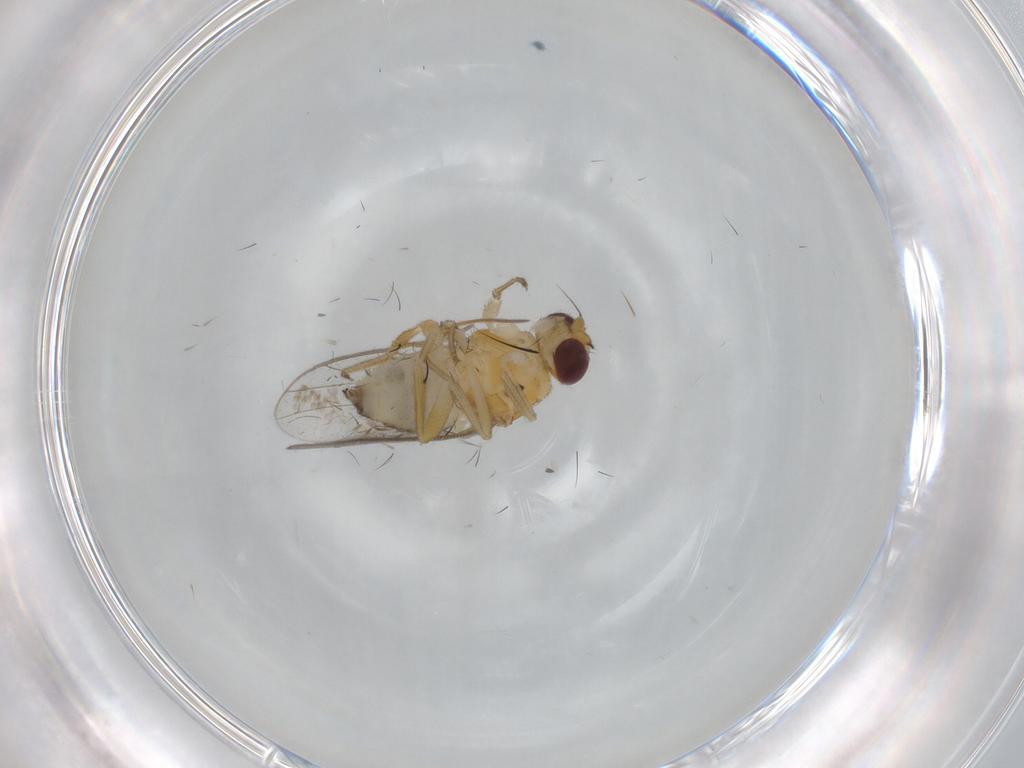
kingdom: Animalia
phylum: Arthropoda
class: Insecta
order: Diptera
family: Chloropidae
